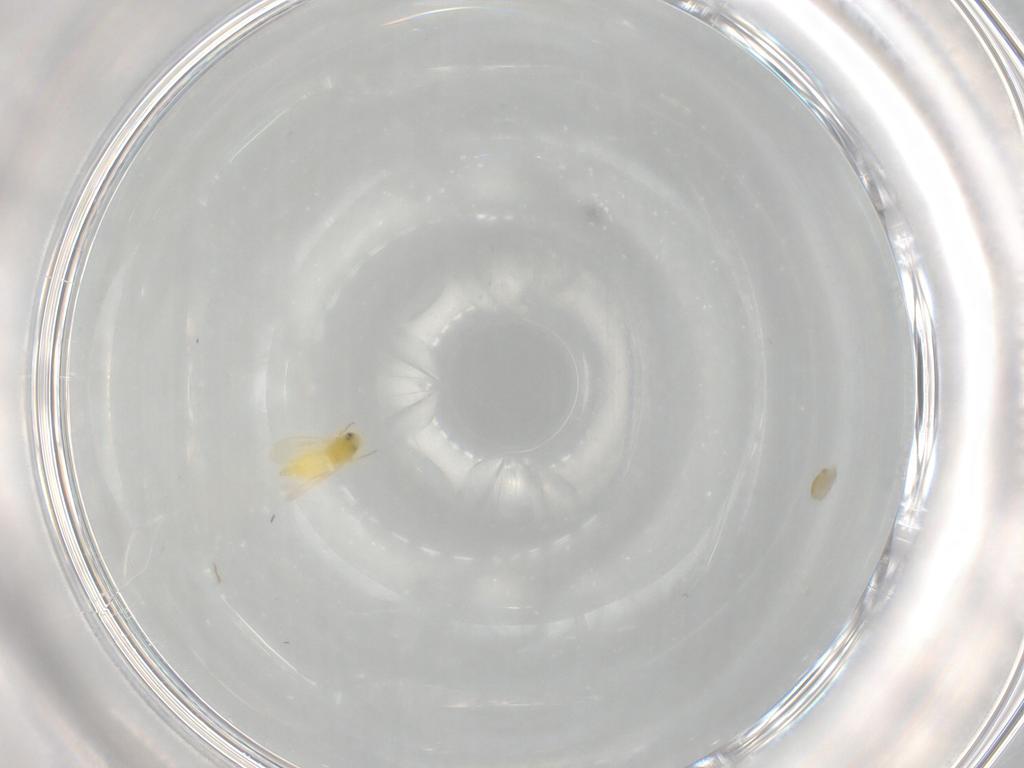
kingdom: Animalia
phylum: Arthropoda
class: Insecta
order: Hemiptera
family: Aleyrodidae
